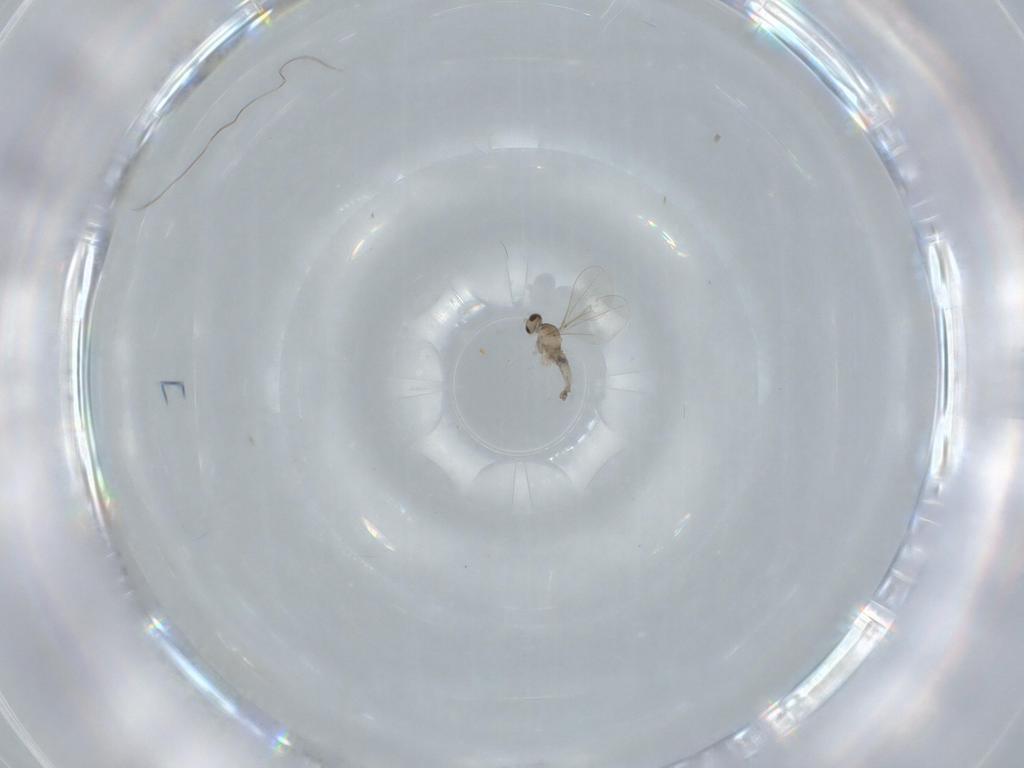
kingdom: Animalia
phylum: Arthropoda
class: Insecta
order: Diptera
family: Cecidomyiidae
